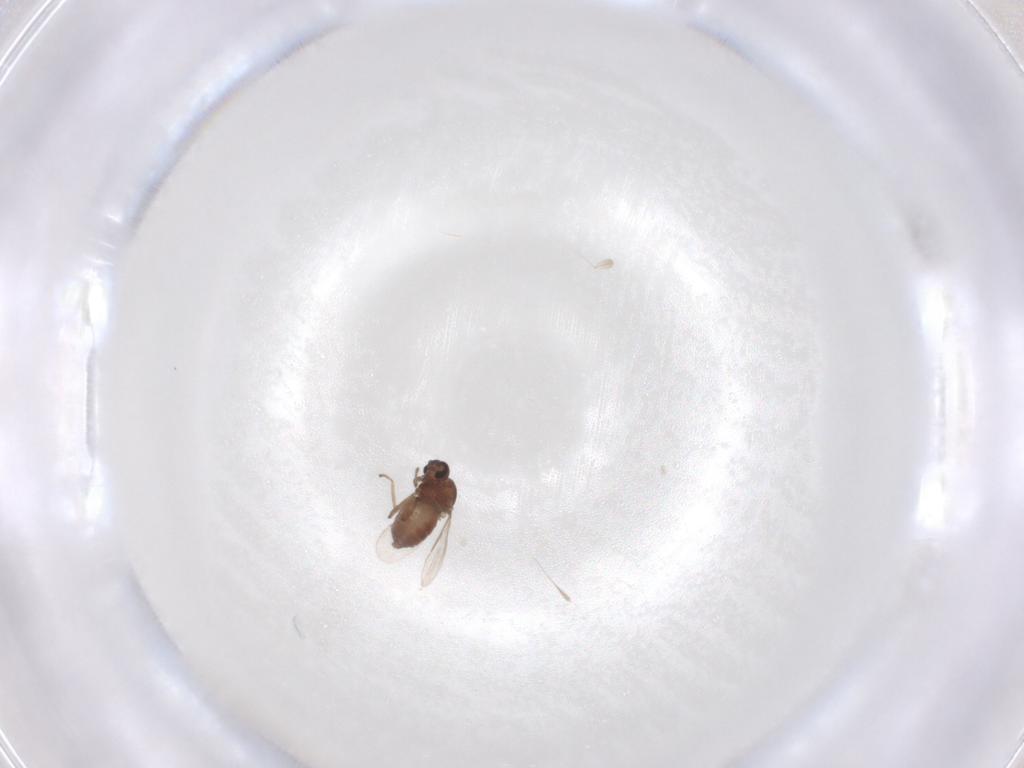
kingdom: Animalia
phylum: Arthropoda
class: Insecta
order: Diptera
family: Ceratopogonidae
